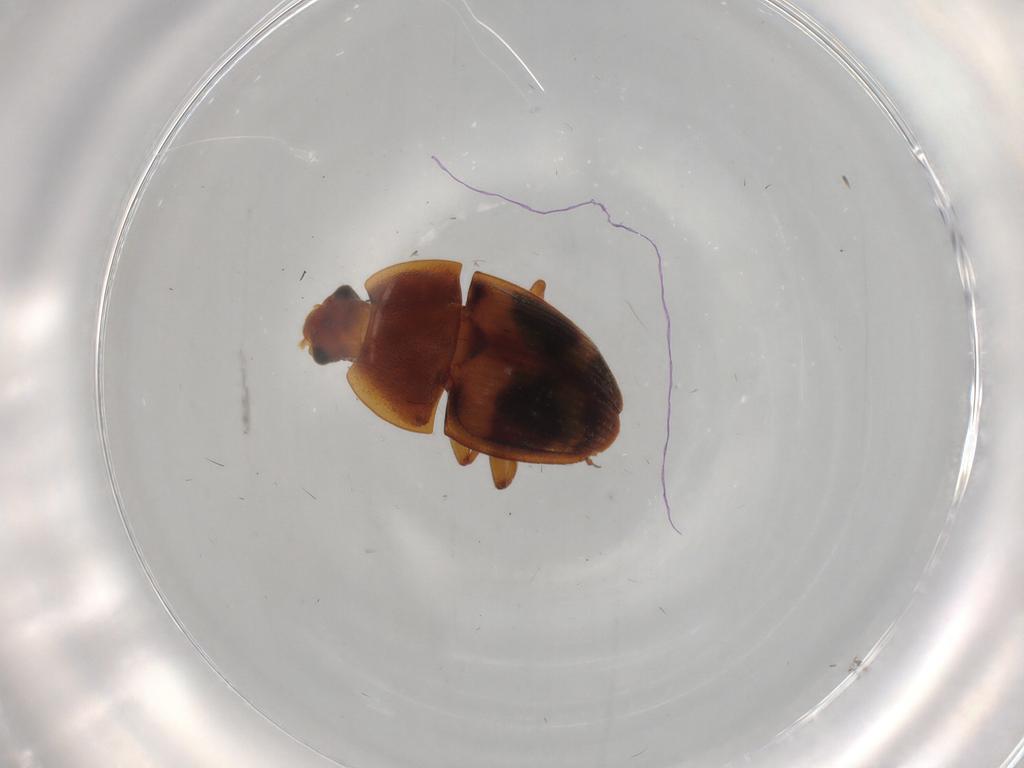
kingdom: Animalia
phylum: Arthropoda
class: Insecta
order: Coleoptera
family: Nitidulidae
